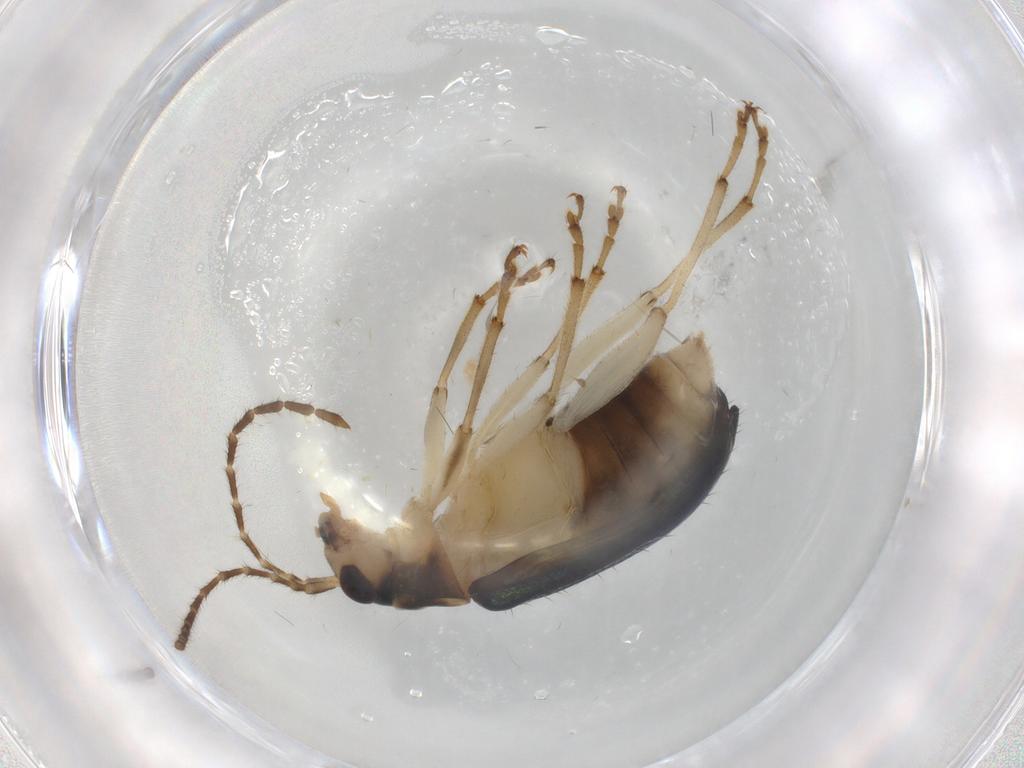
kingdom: Animalia
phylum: Arthropoda
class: Insecta
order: Coleoptera
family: Chrysomelidae
